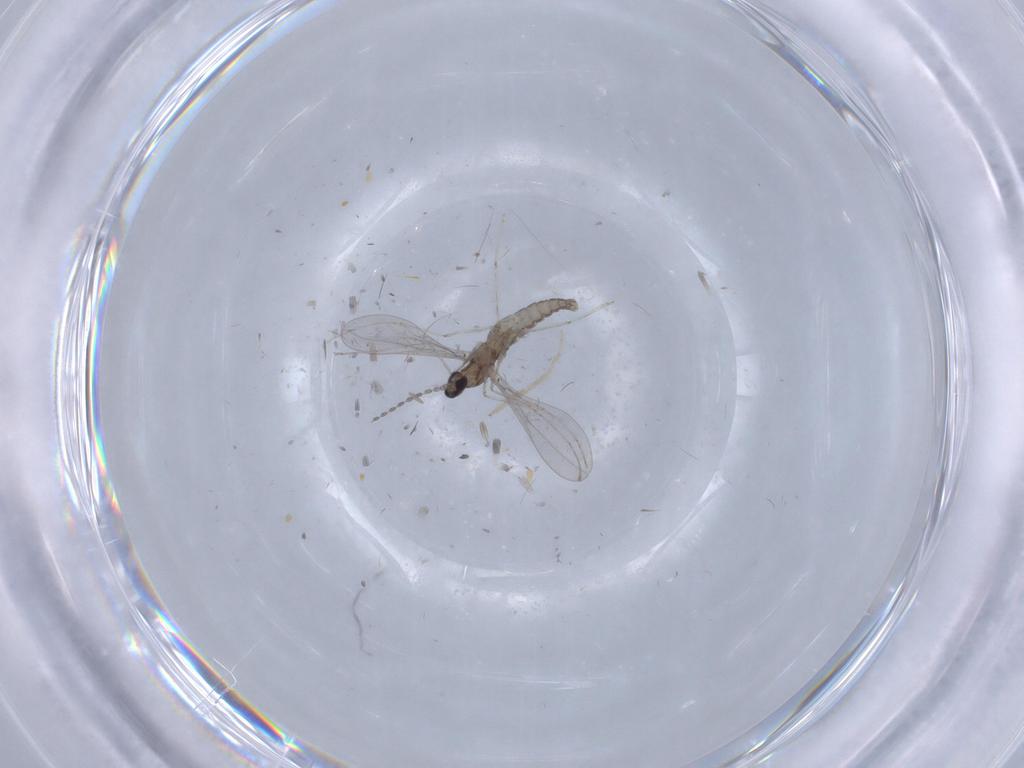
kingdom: Animalia
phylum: Arthropoda
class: Insecta
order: Diptera
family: Cecidomyiidae
